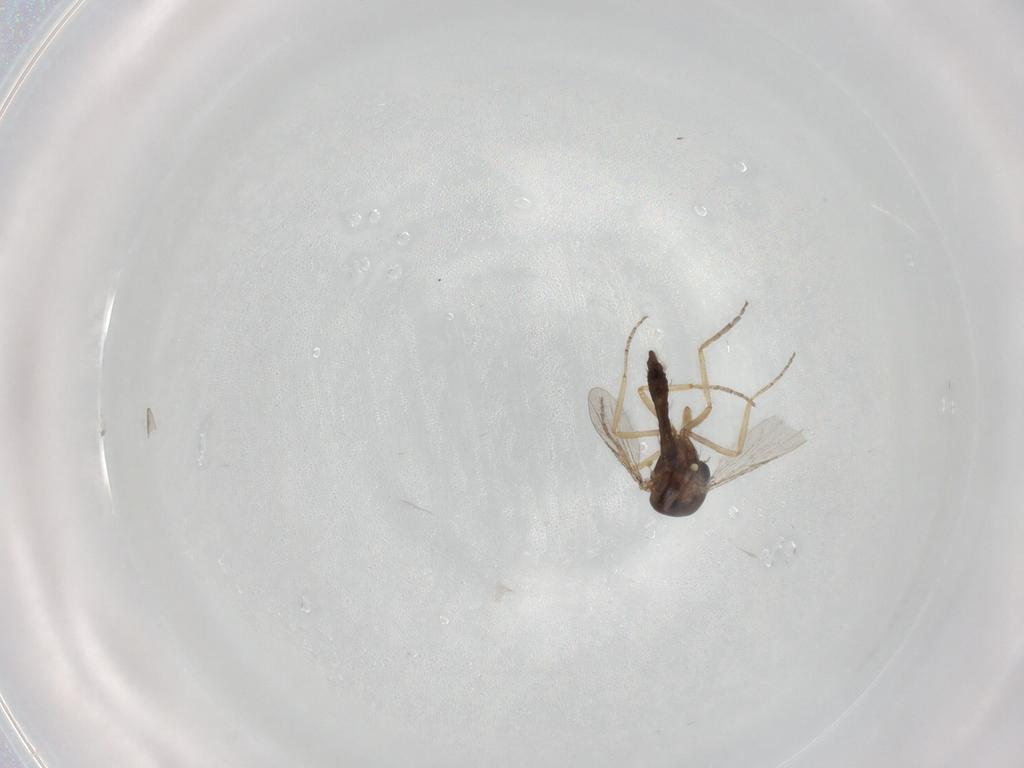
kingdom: Animalia
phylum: Arthropoda
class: Insecta
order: Diptera
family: Ceratopogonidae
